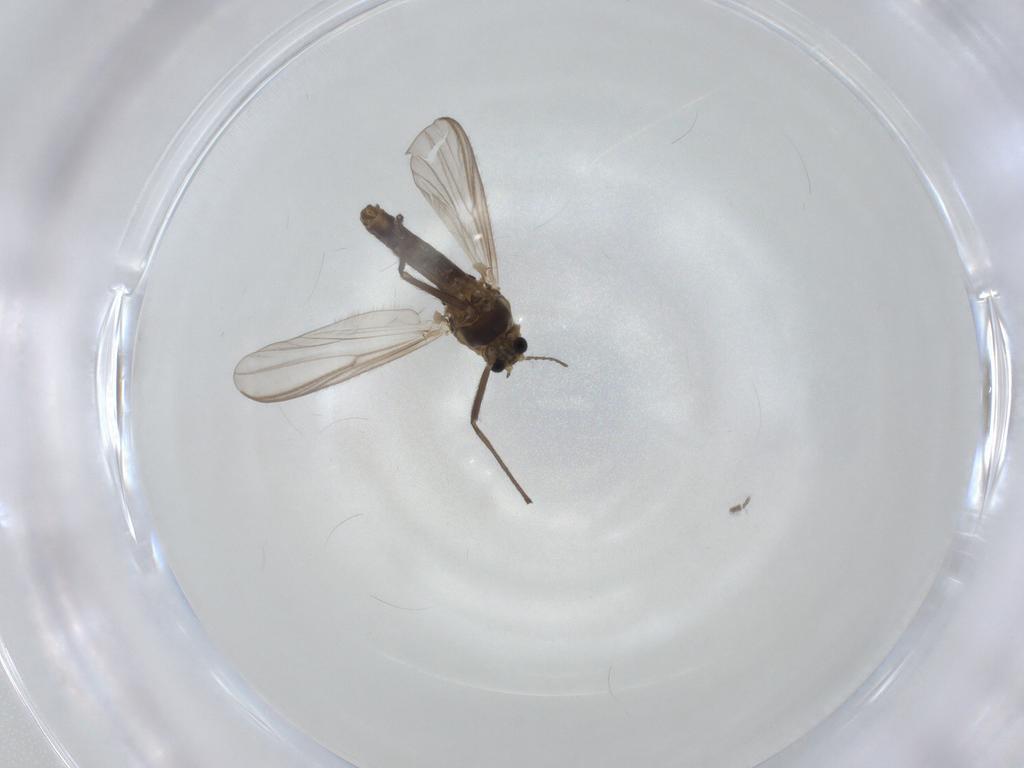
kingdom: Animalia
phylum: Arthropoda
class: Insecta
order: Diptera
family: Chironomidae
